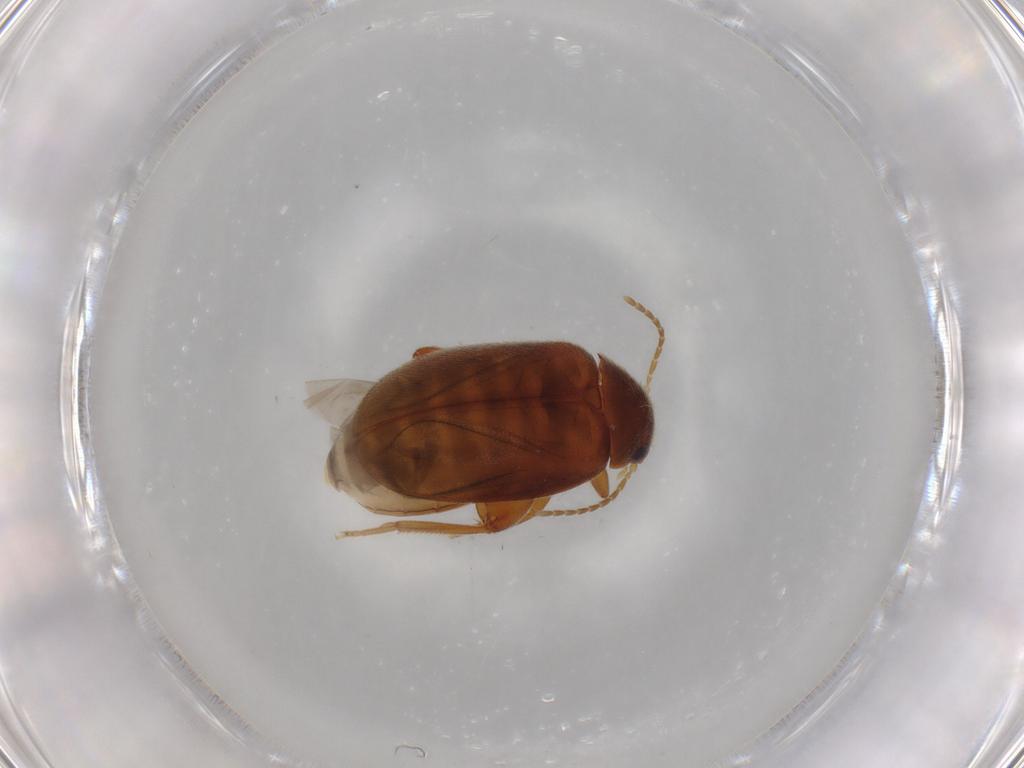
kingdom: Animalia
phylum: Arthropoda
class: Insecta
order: Coleoptera
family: Scirtidae
